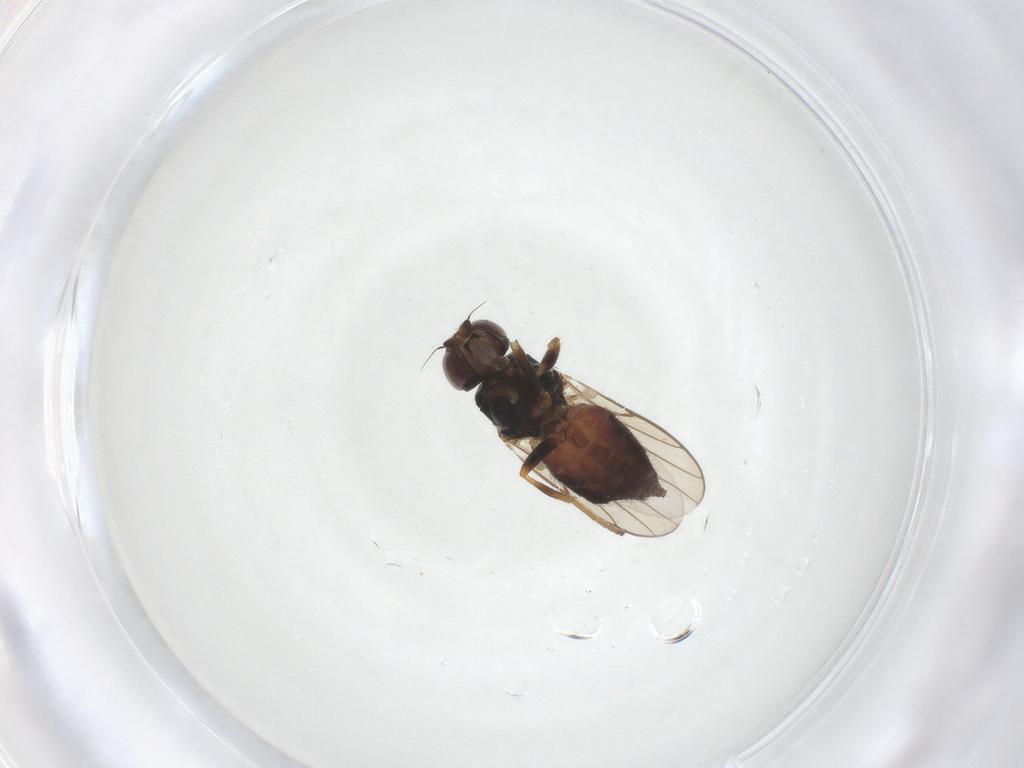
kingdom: Animalia
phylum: Arthropoda
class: Insecta
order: Diptera
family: Chloropidae
